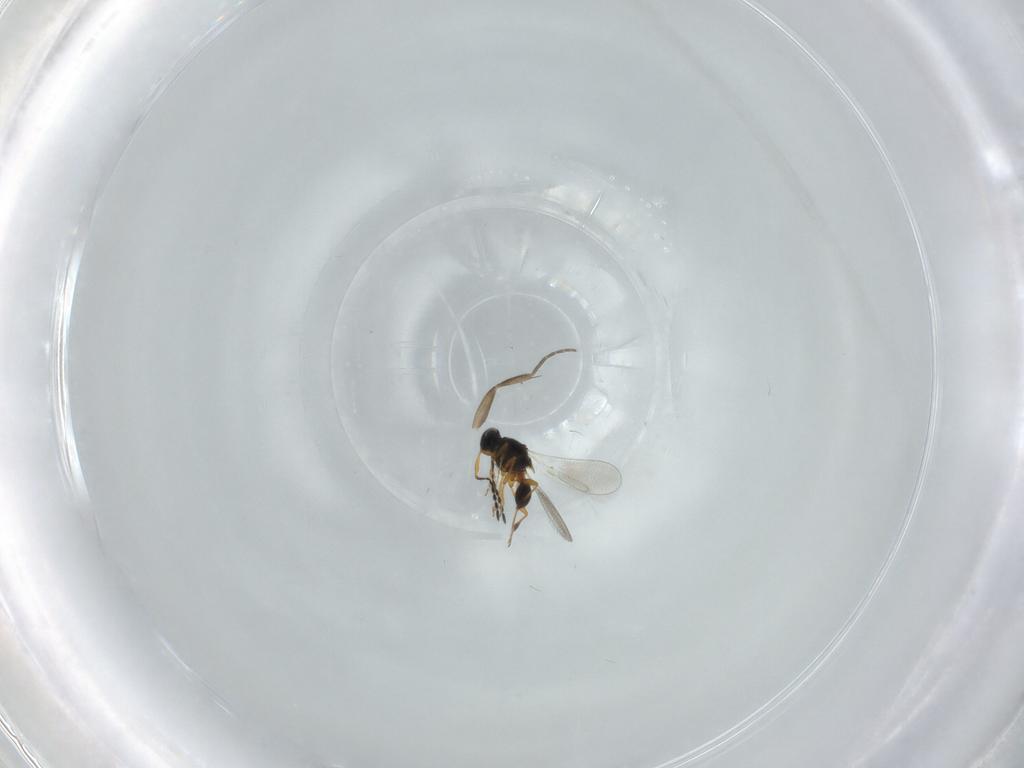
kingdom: Animalia
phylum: Arthropoda
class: Insecta
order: Hymenoptera
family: Platygastridae
